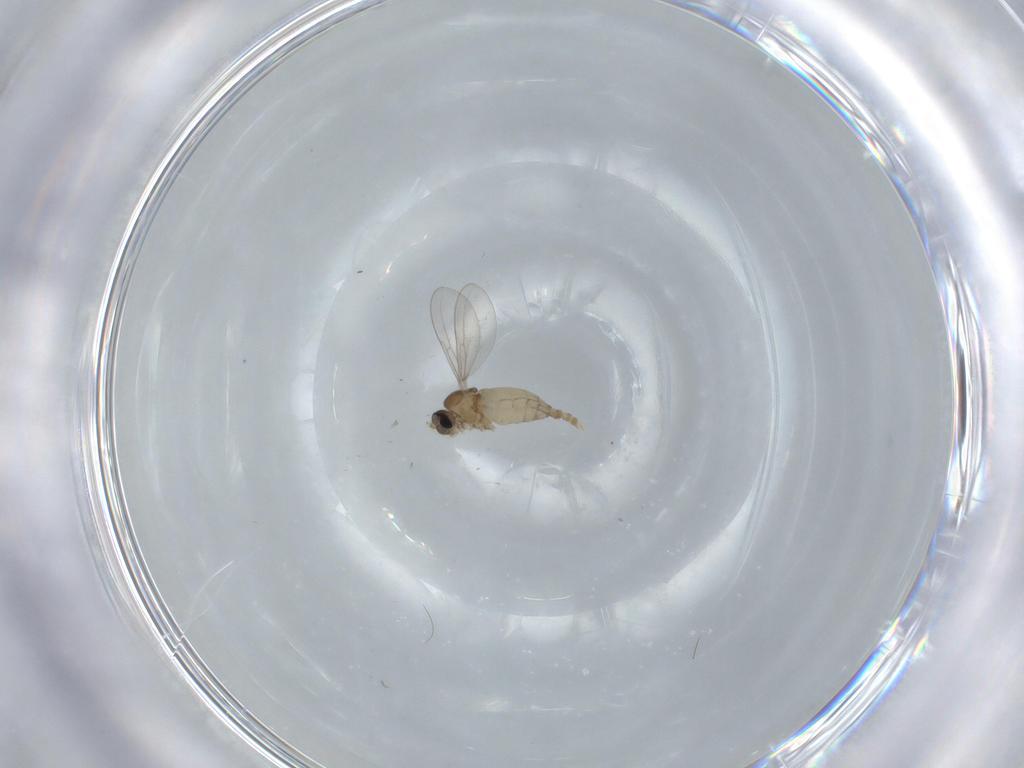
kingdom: Animalia
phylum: Arthropoda
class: Insecta
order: Diptera
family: Cecidomyiidae
